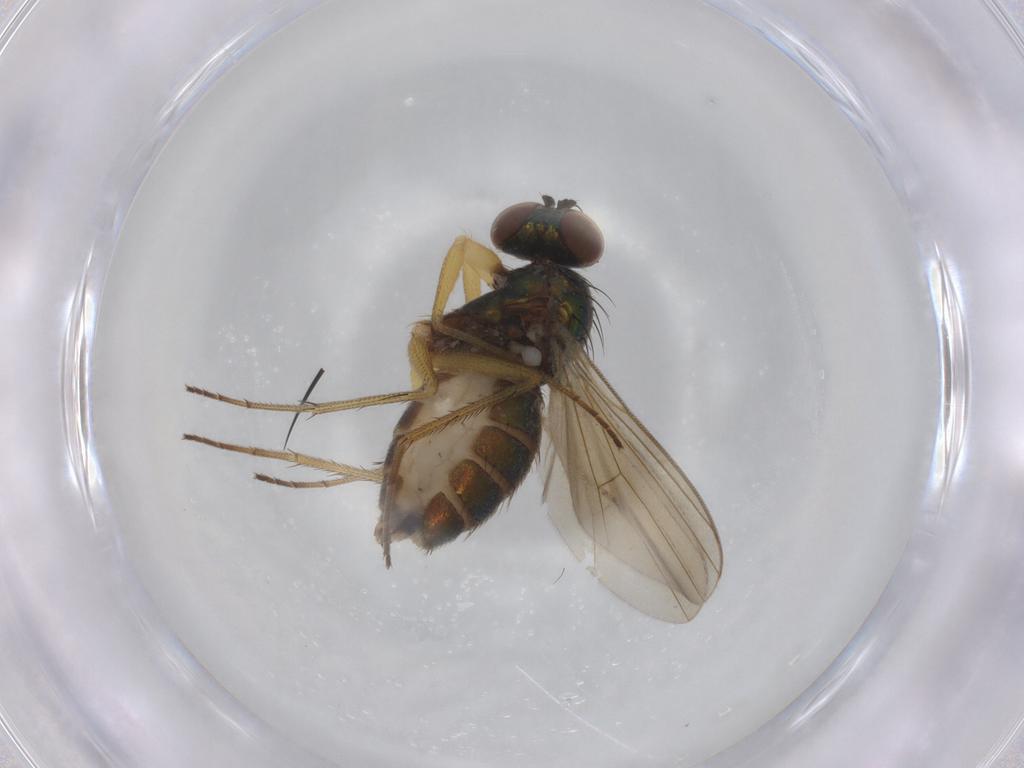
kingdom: Animalia
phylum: Arthropoda
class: Insecta
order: Diptera
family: Dolichopodidae
